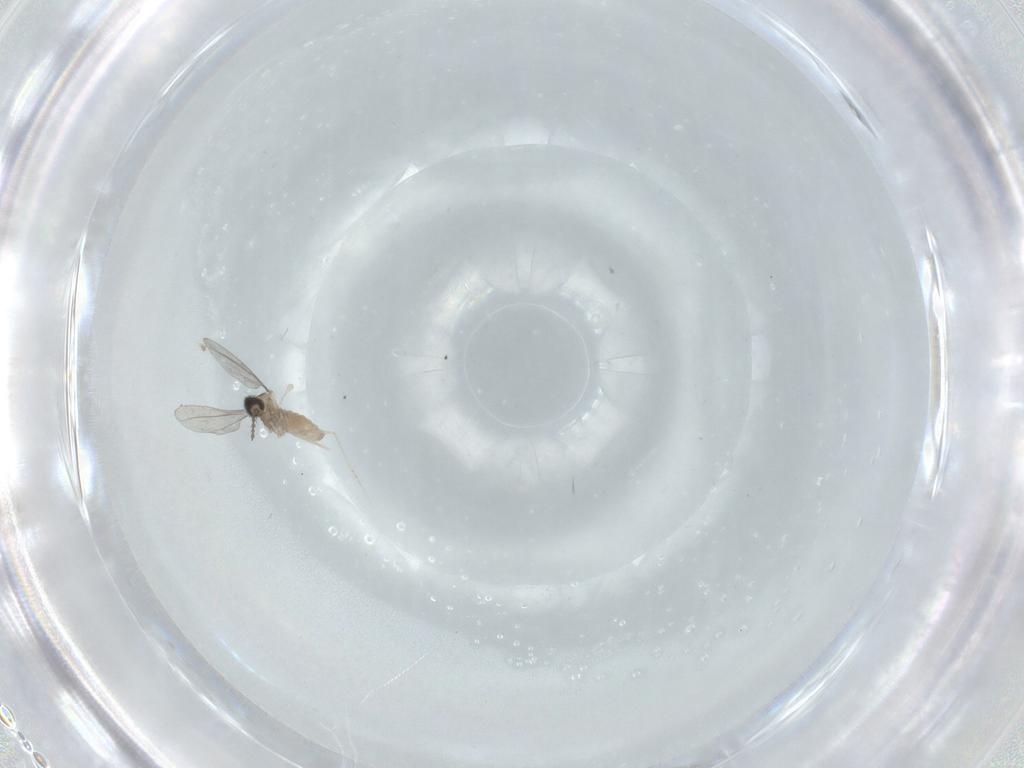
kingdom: Animalia
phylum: Arthropoda
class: Insecta
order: Diptera
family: Cecidomyiidae
